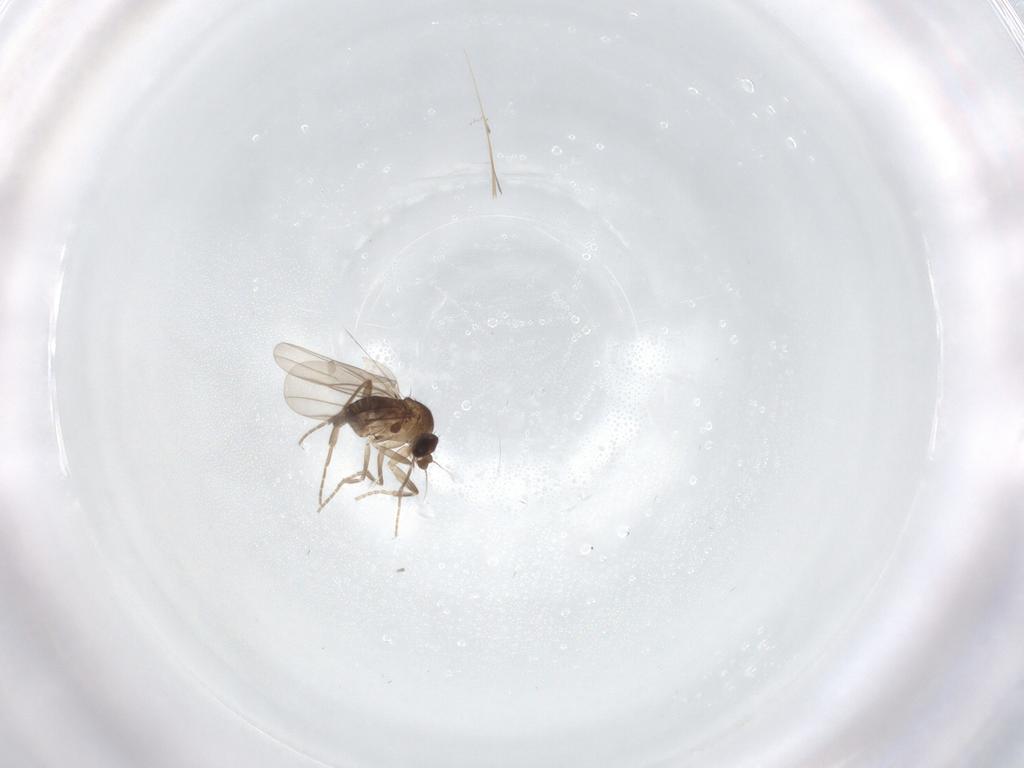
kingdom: Animalia
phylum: Arthropoda
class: Insecta
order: Diptera
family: Phoridae
